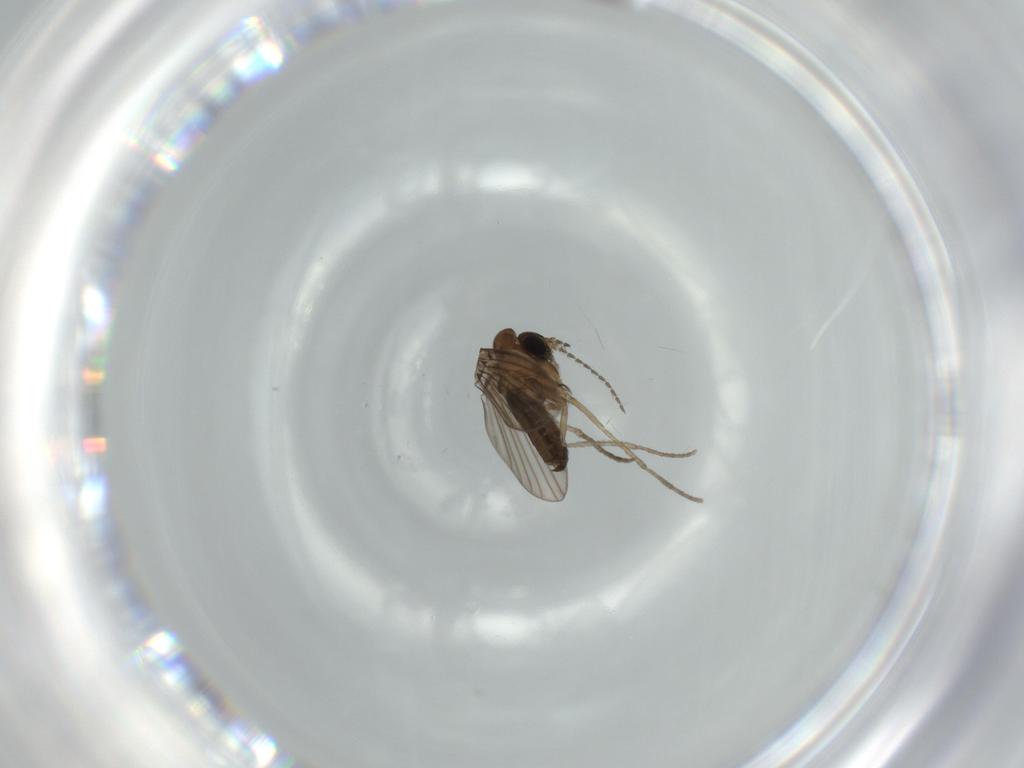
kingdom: Animalia
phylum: Arthropoda
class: Insecta
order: Diptera
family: Psychodidae
